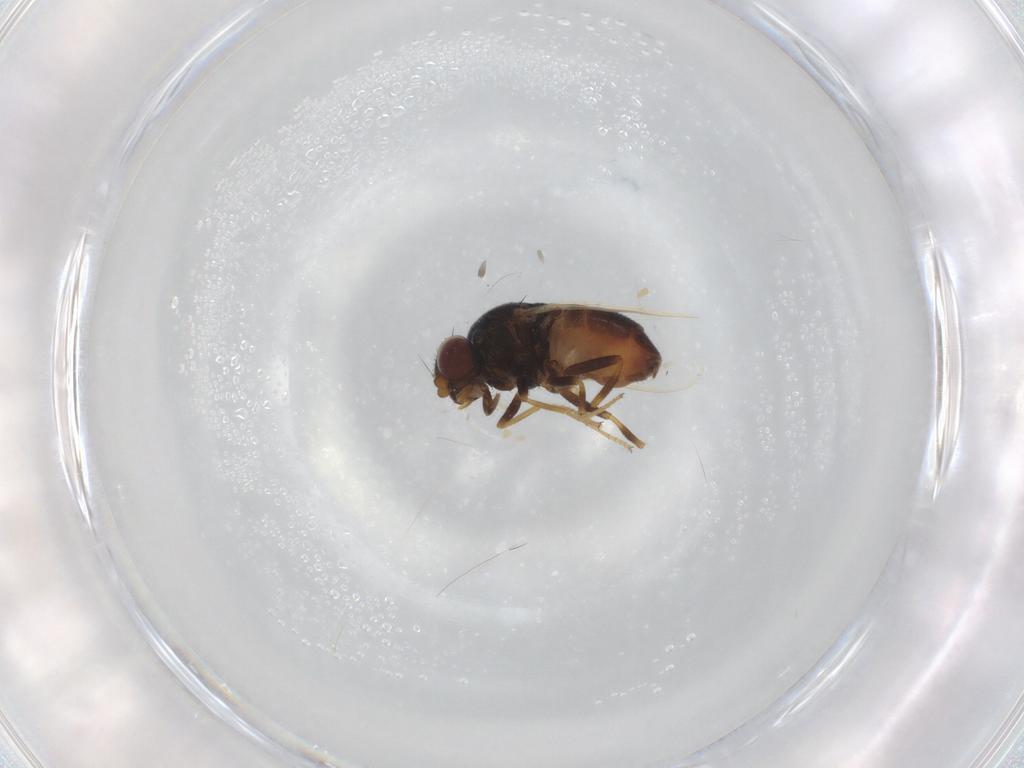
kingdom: Animalia
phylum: Arthropoda
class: Insecta
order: Diptera
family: Chloropidae
